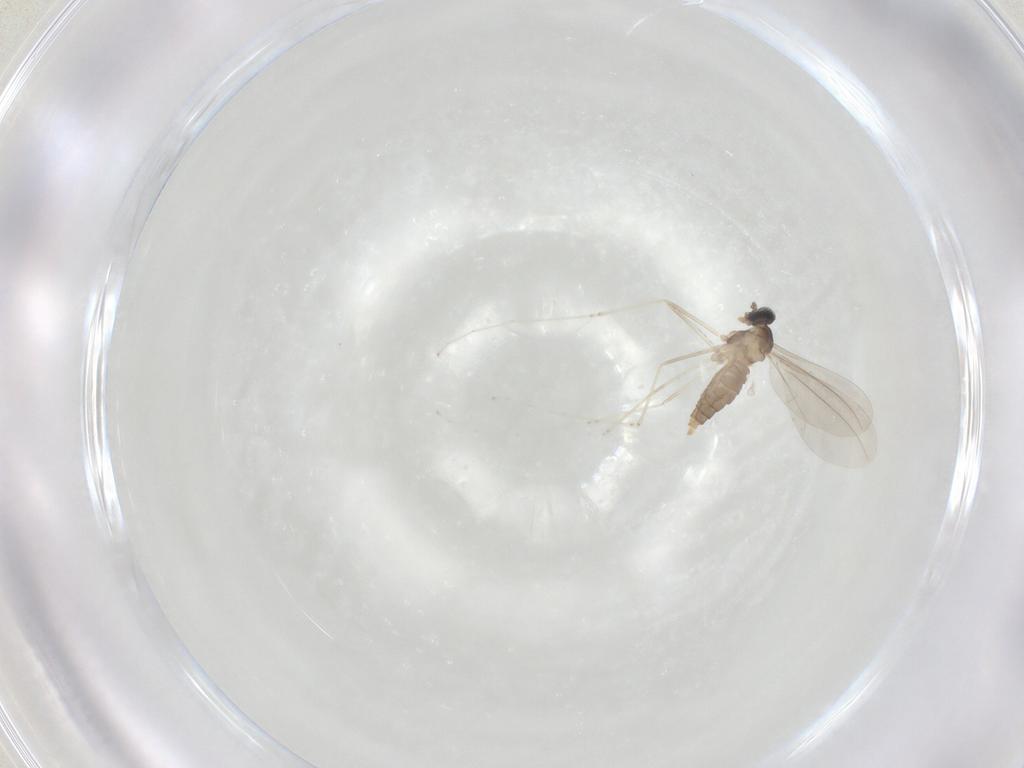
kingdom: Animalia
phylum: Arthropoda
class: Insecta
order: Diptera
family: Cecidomyiidae
